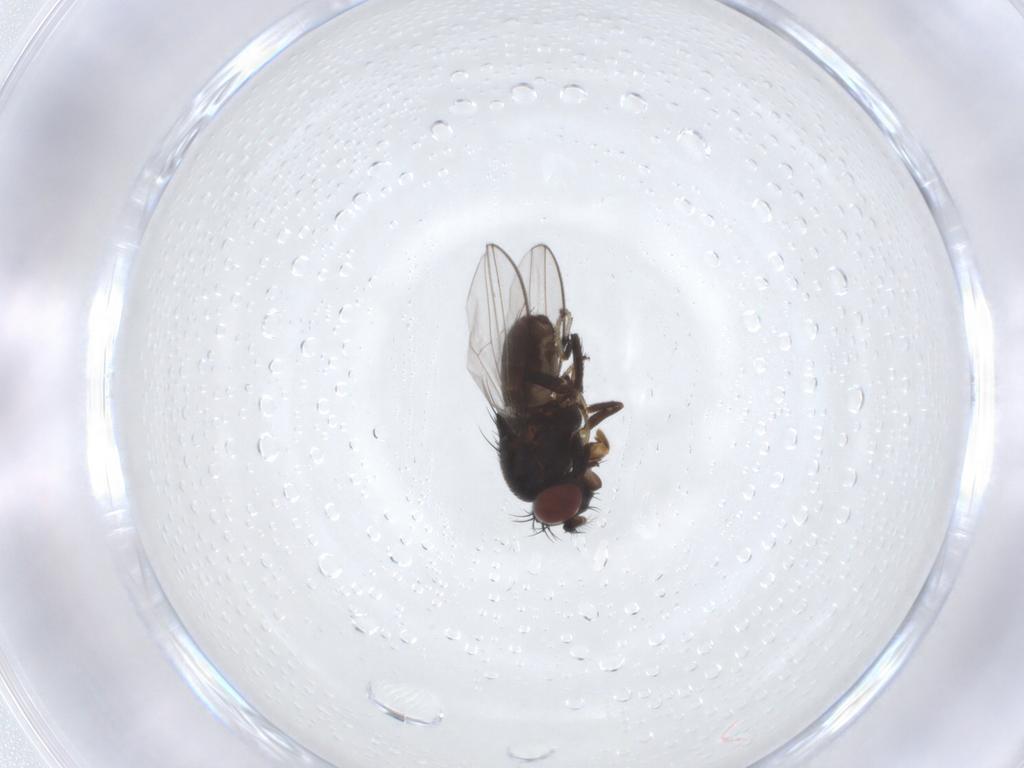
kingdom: Animalia
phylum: Arthropoda
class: Insecta
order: Diptera
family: Ephydridae
